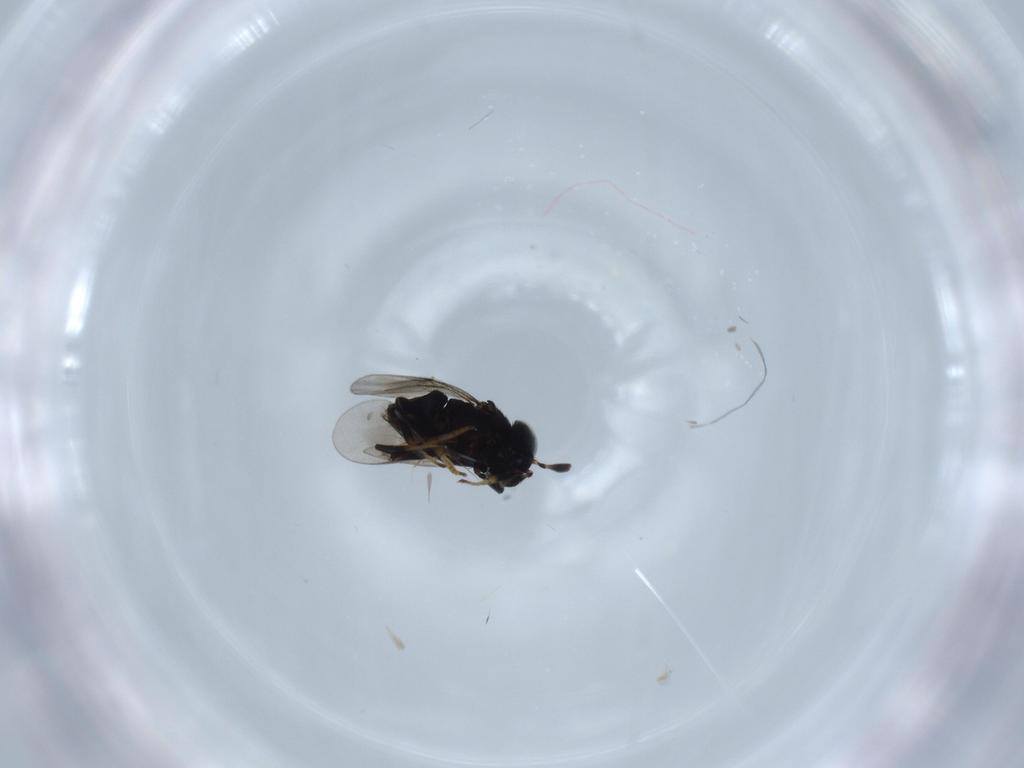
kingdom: Animalia
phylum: Arthropoda
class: Insecta
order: Hymenoptera
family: Encyrtidae
